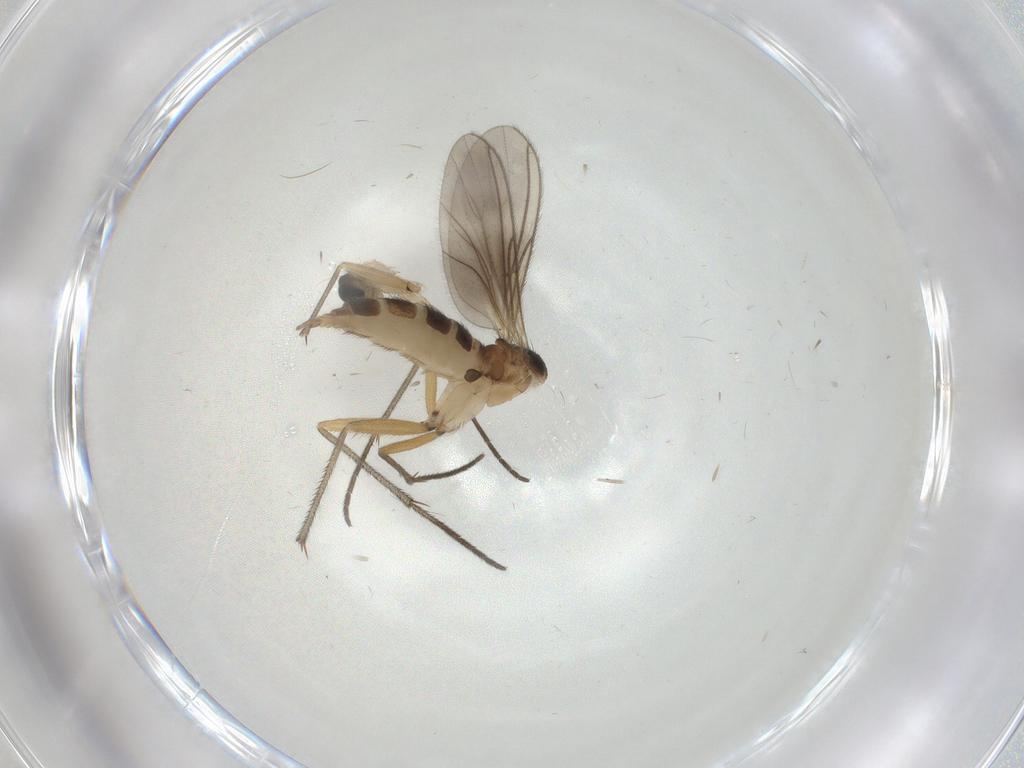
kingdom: Animalia
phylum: Arthropoda
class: Insecta
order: Diptera
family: Sciaridae
